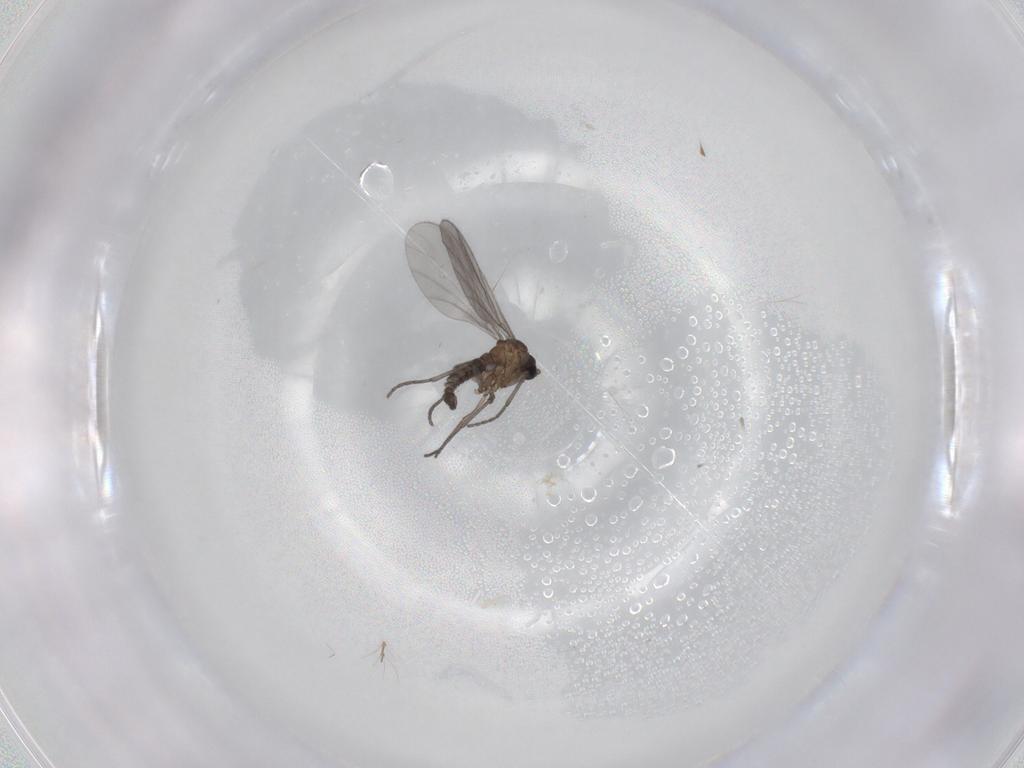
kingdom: Animalia
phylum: Arthropoda
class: Insecta
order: Diptera
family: Sciaridae
